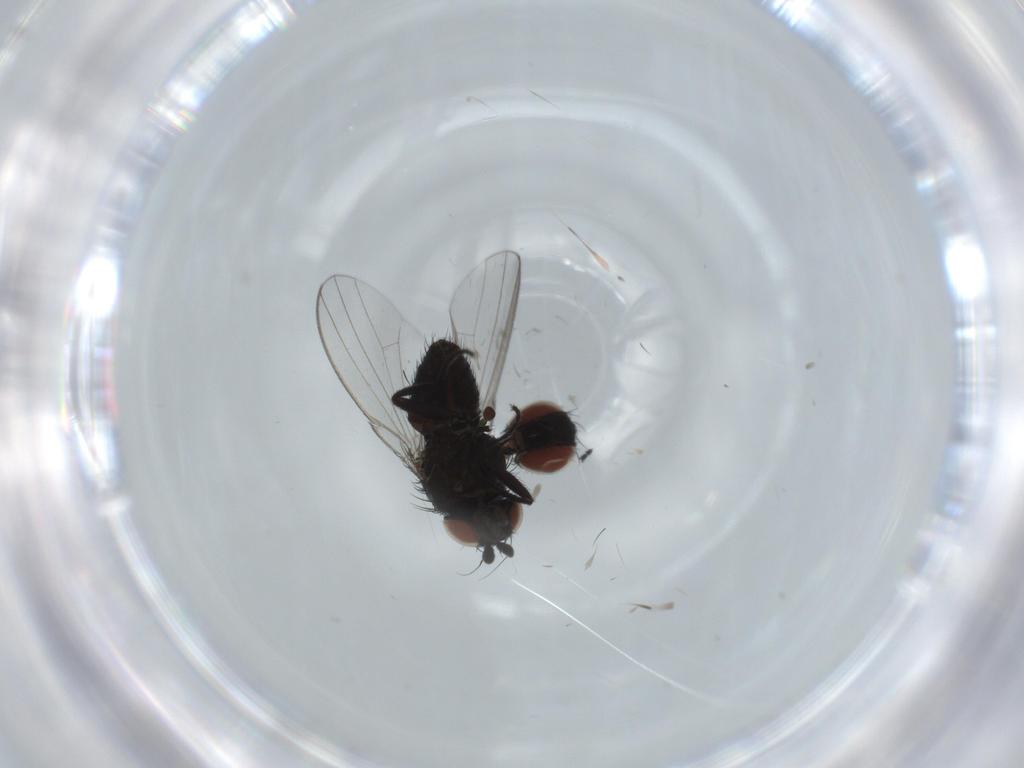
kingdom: Animalia
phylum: Arthropoda
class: Insecta
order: Diptera
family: Milichiidae
